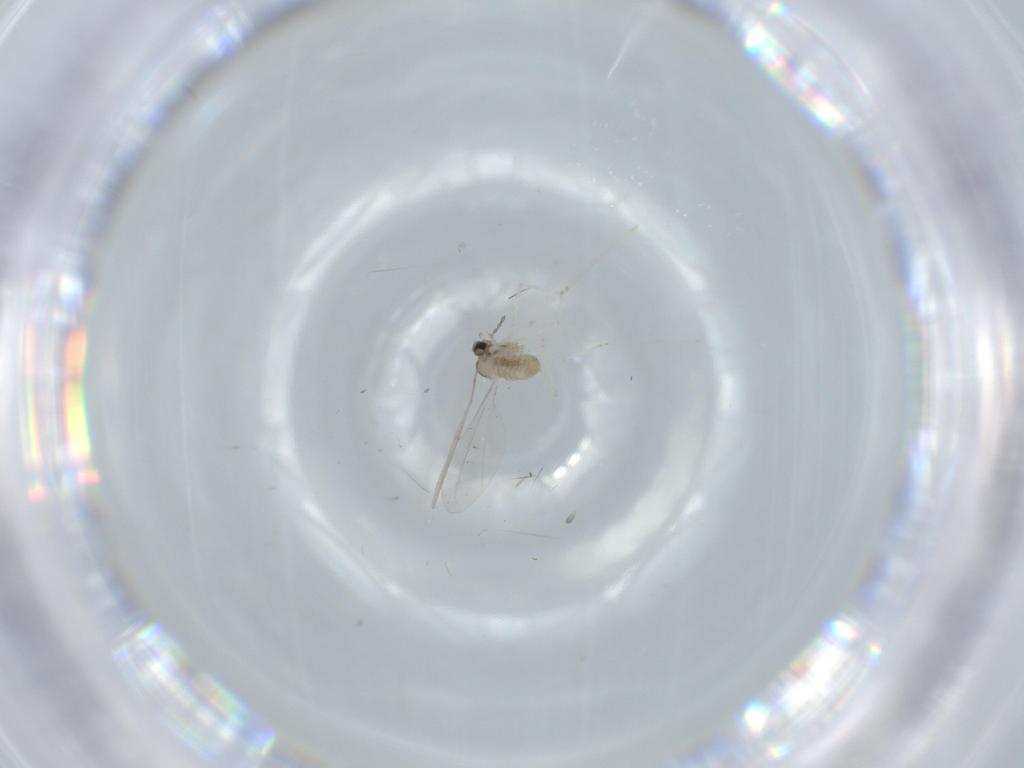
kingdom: Animalia
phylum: Arthropoda
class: Insecta
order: Diptera
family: Cecidomyiidae
